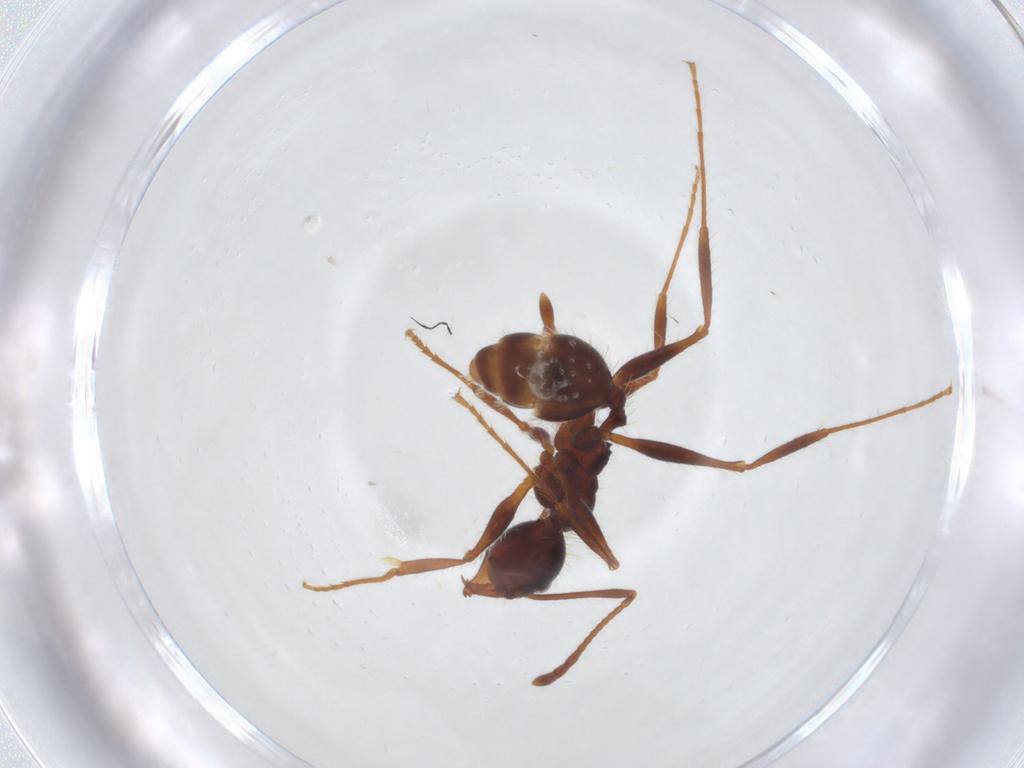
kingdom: Animalia
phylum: Arthropoda
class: Insecta
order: Hymenoptera
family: Formicidae
